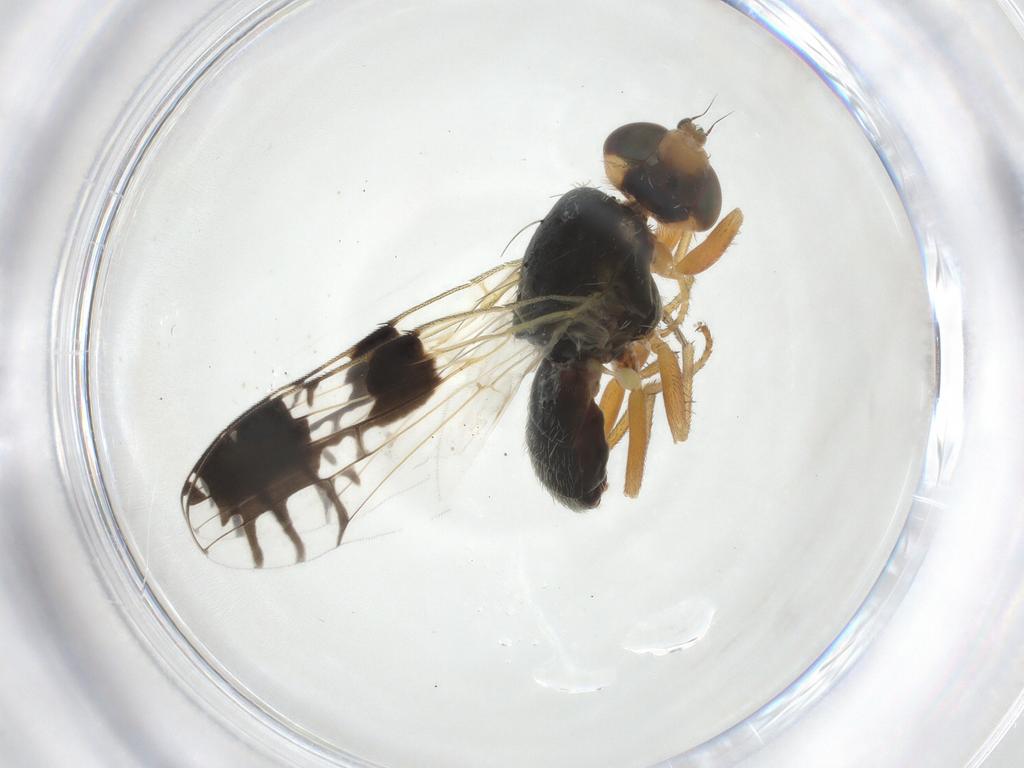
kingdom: Animalia
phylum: Arthropoda
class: Insecta
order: Diptera
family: Tephritidae
